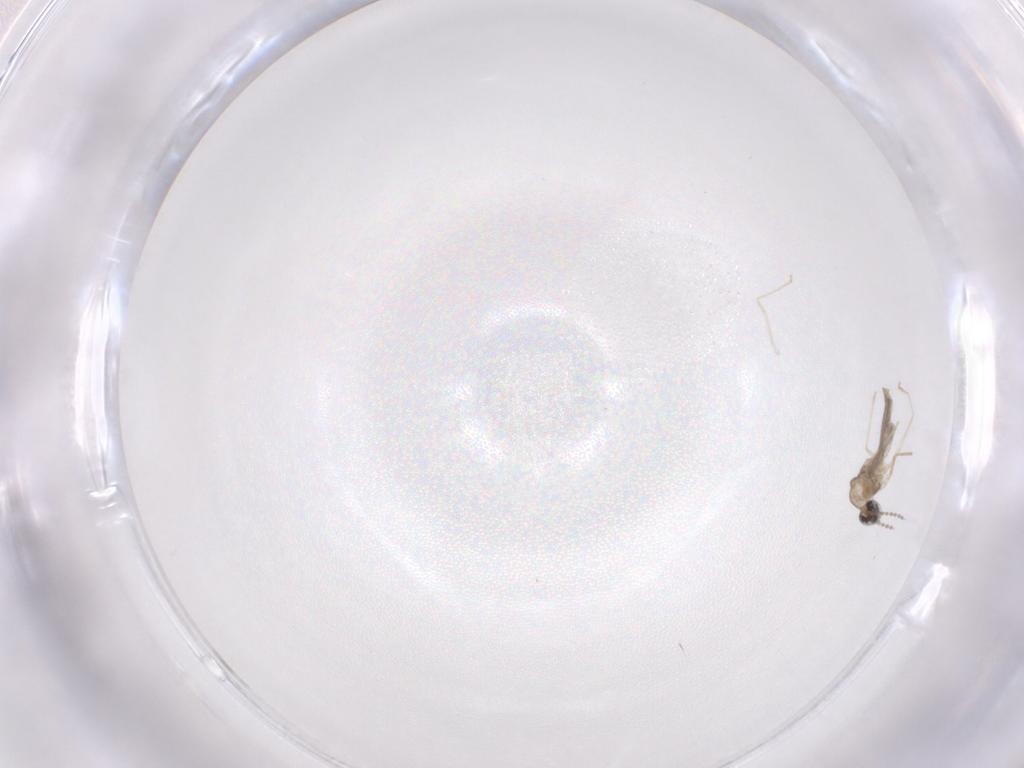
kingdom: Animalia
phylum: Arthropoda
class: Insecta
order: Diptera
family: Cecidomyiidae
